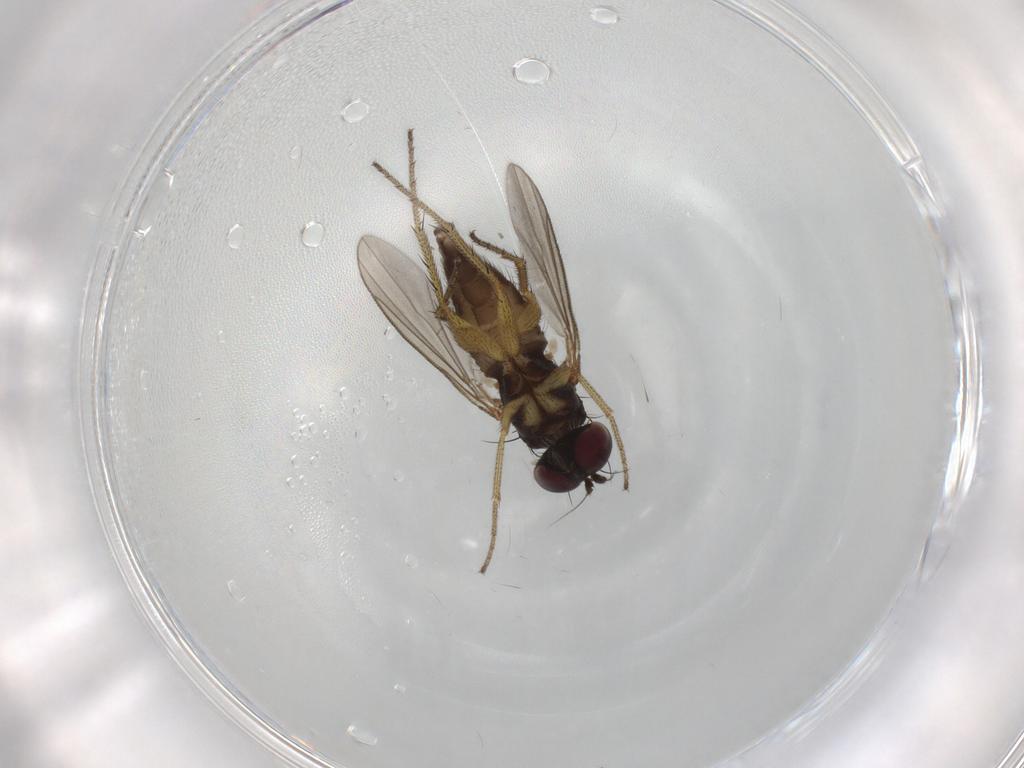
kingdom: Animalia
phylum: Arthropoda
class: Insecta
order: Diptera
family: Dolichopodidae
